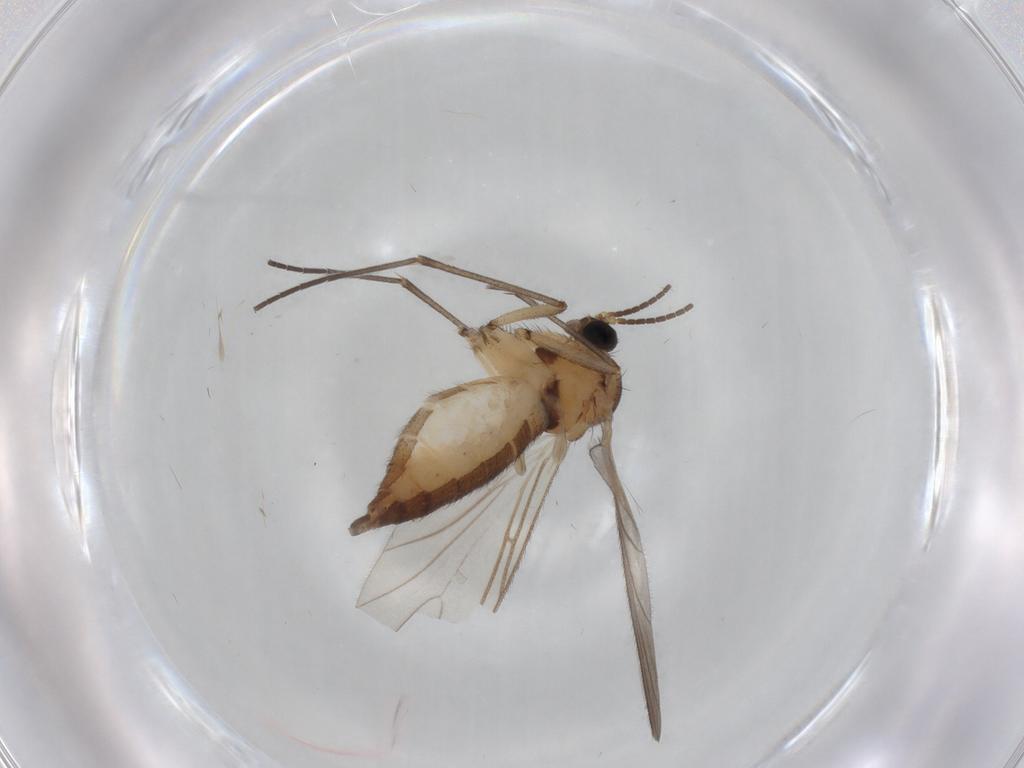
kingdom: Animalia
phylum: Arthropoda
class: Insecta
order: Diptera
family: Sciaridae
